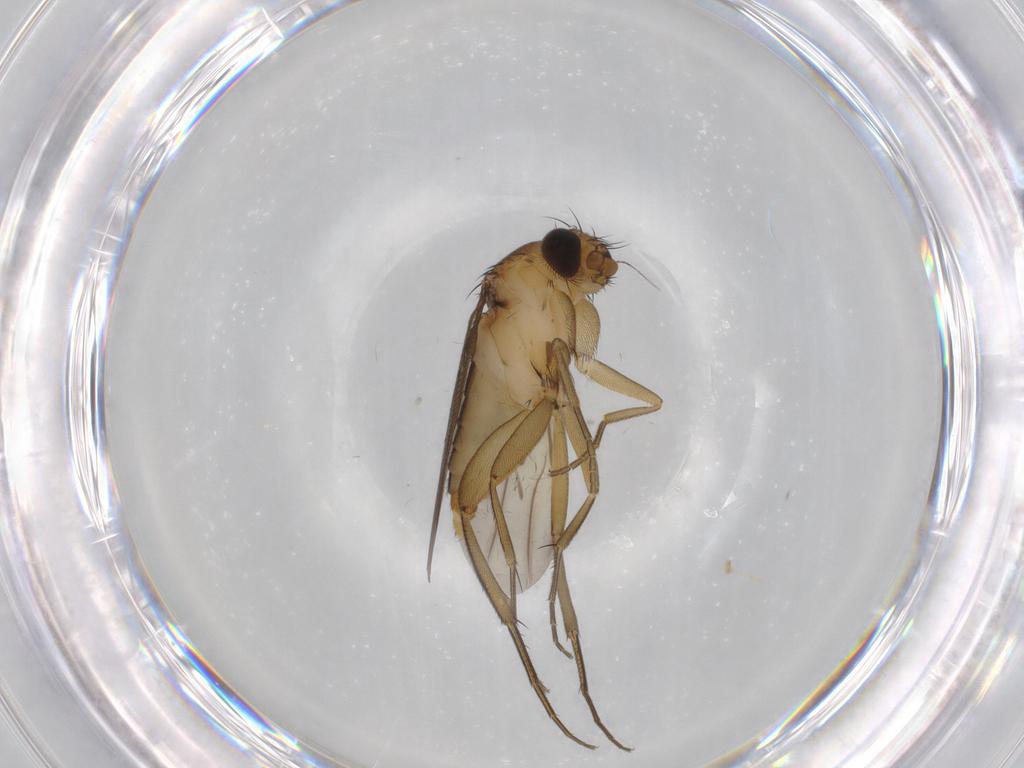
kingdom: Animalia
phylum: Arthropoda
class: Insecta
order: Diptera
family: Phoridae
